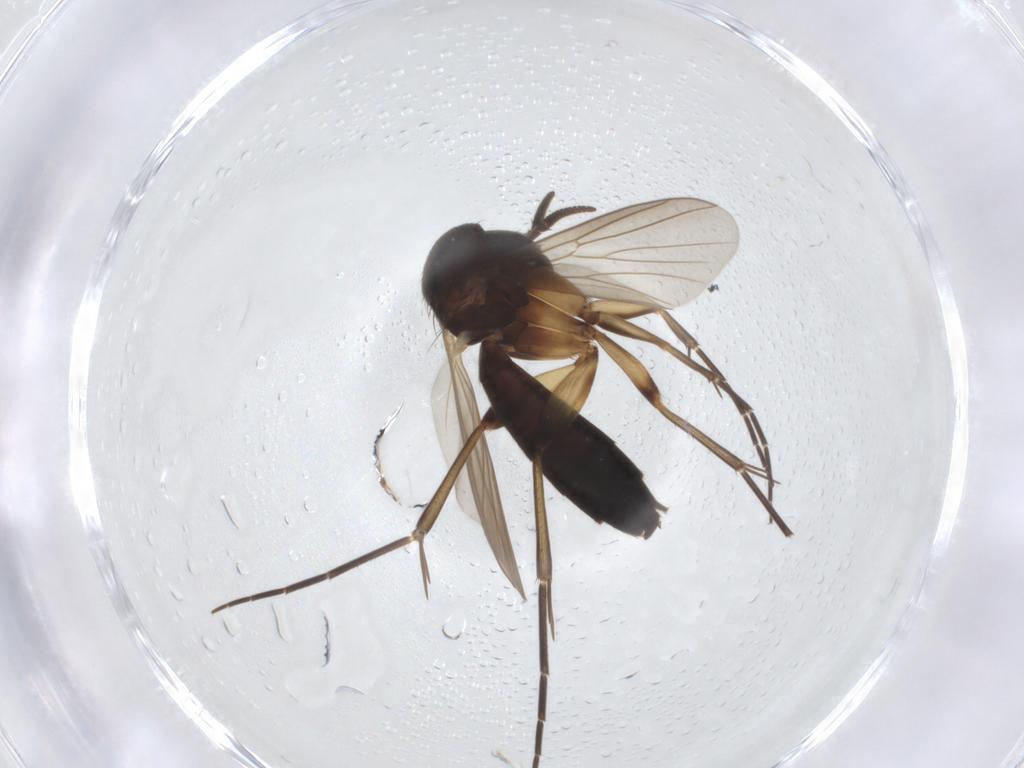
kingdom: Animalia
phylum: Arthropoda
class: Insecta
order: Diptera
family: Mycetophilidae
